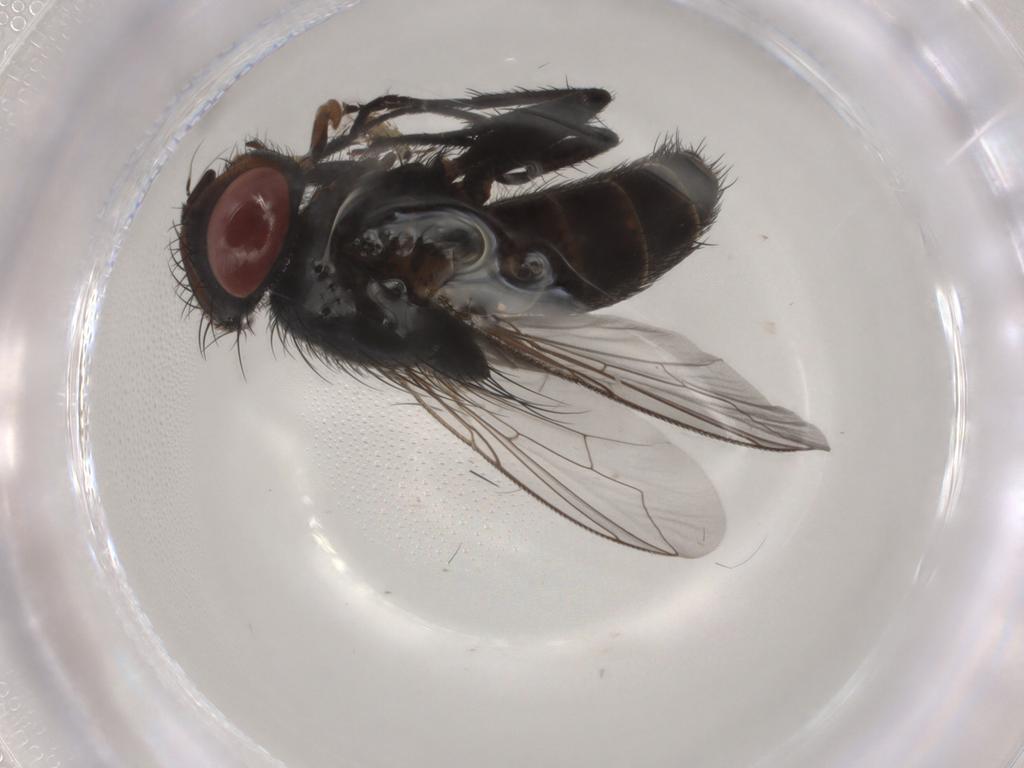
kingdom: Animalia
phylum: Arthropoda
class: Insecta
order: Diptera
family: Sarcophagidae
